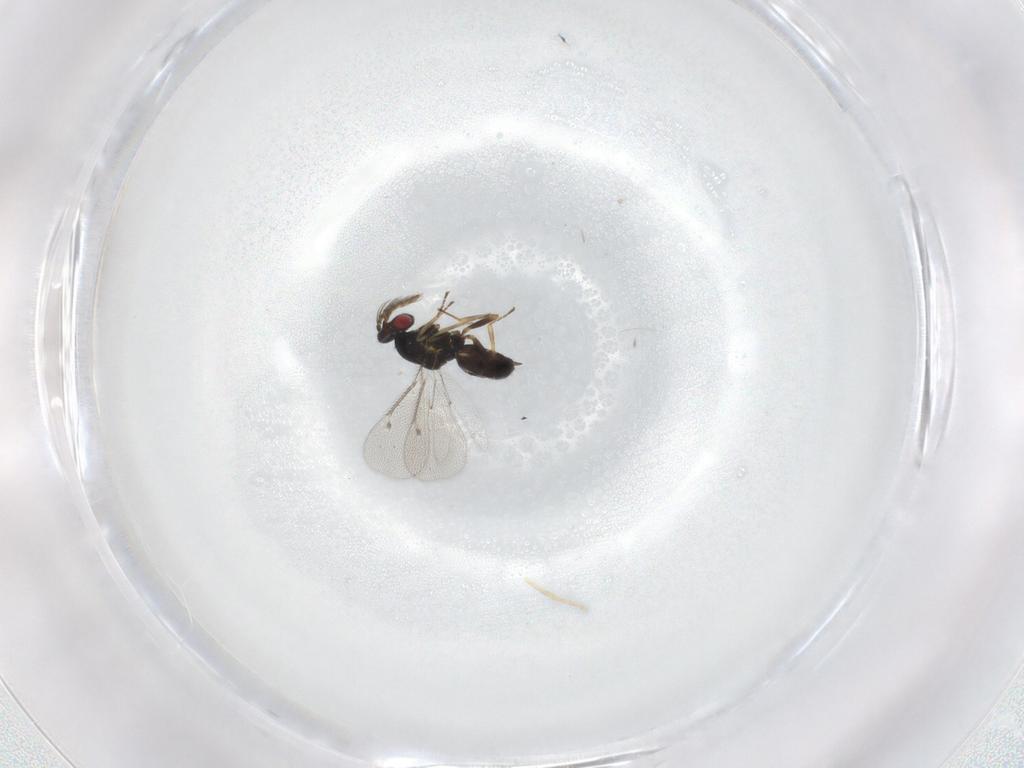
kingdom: Animalia
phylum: Arthropoda
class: Insecta
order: Hymenoptera
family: Eulophidae
